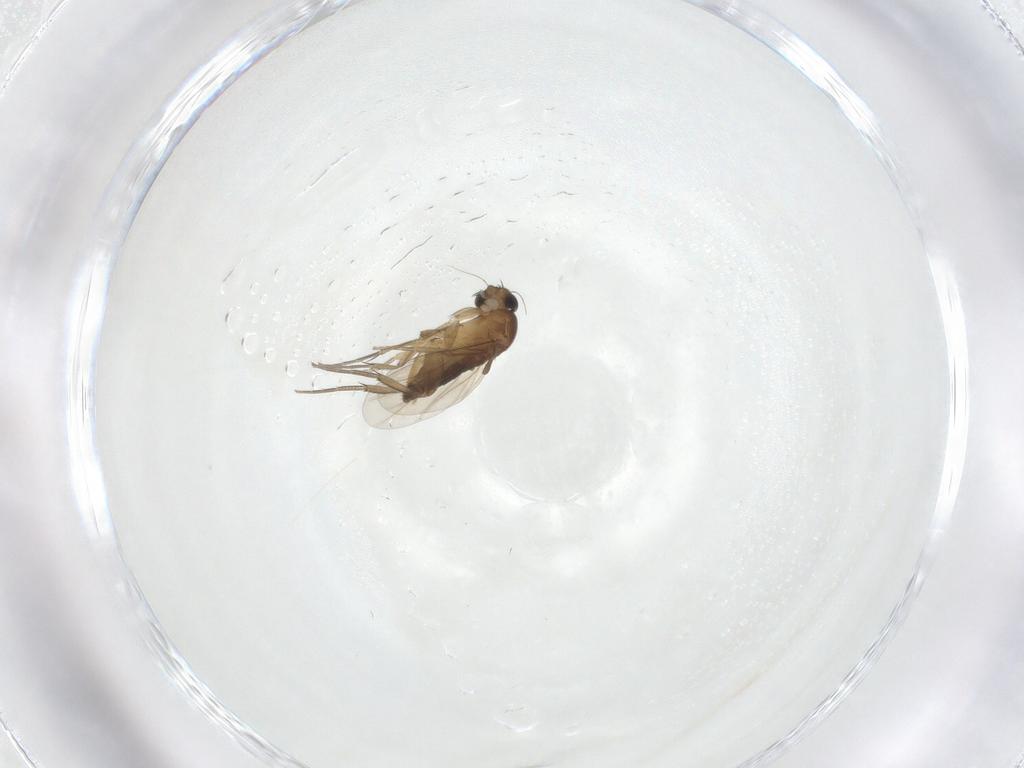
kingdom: Animalia
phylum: Arthropoda
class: Insecta
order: Diptera
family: Phoridae
